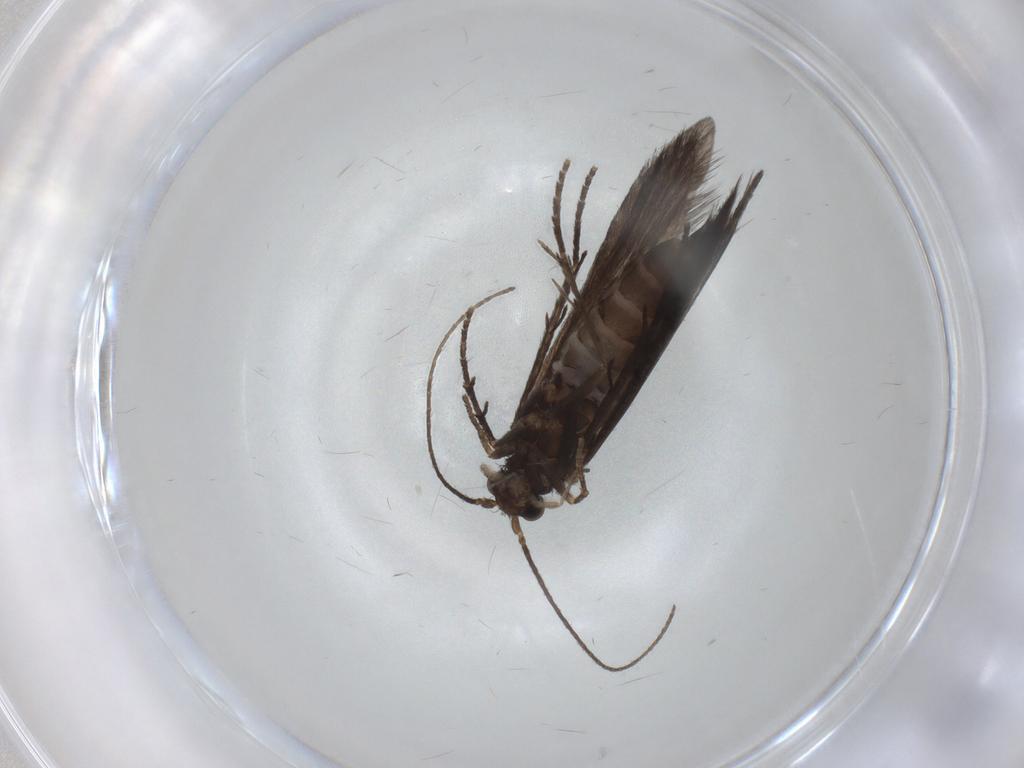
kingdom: Animalia
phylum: Arthropoda
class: Insecta
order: Trichoptera
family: Xiphocentronidae
